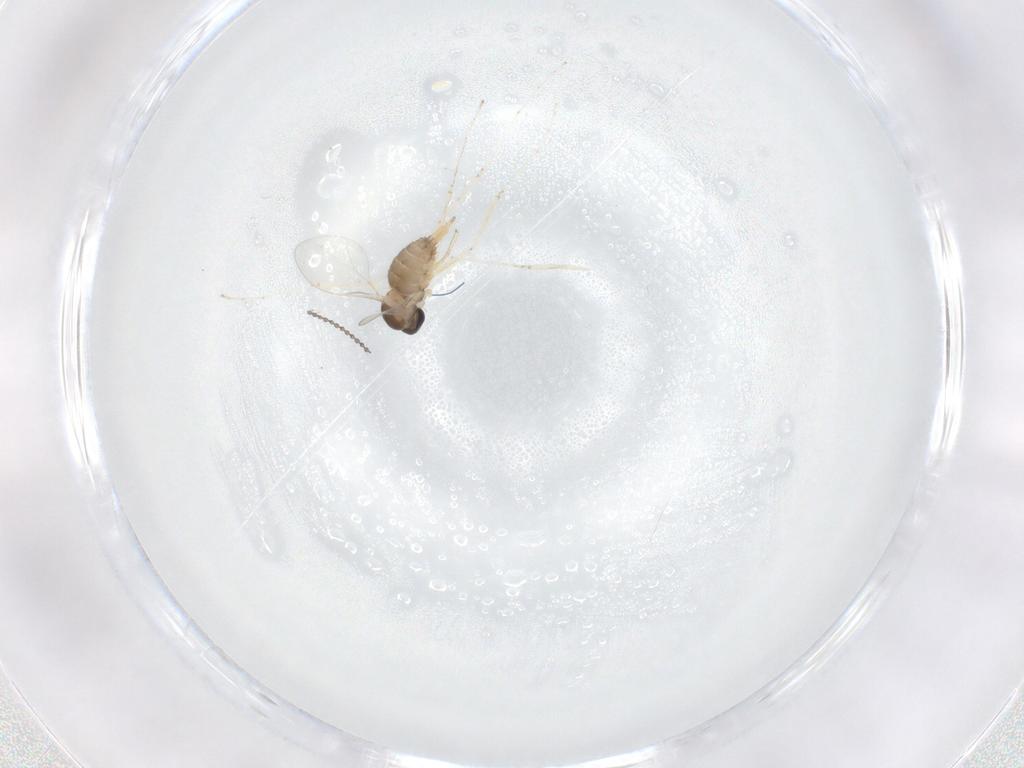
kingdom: Animalia
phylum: Arthropoda
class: Insecta
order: Diptera
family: Cecidomyiidae
